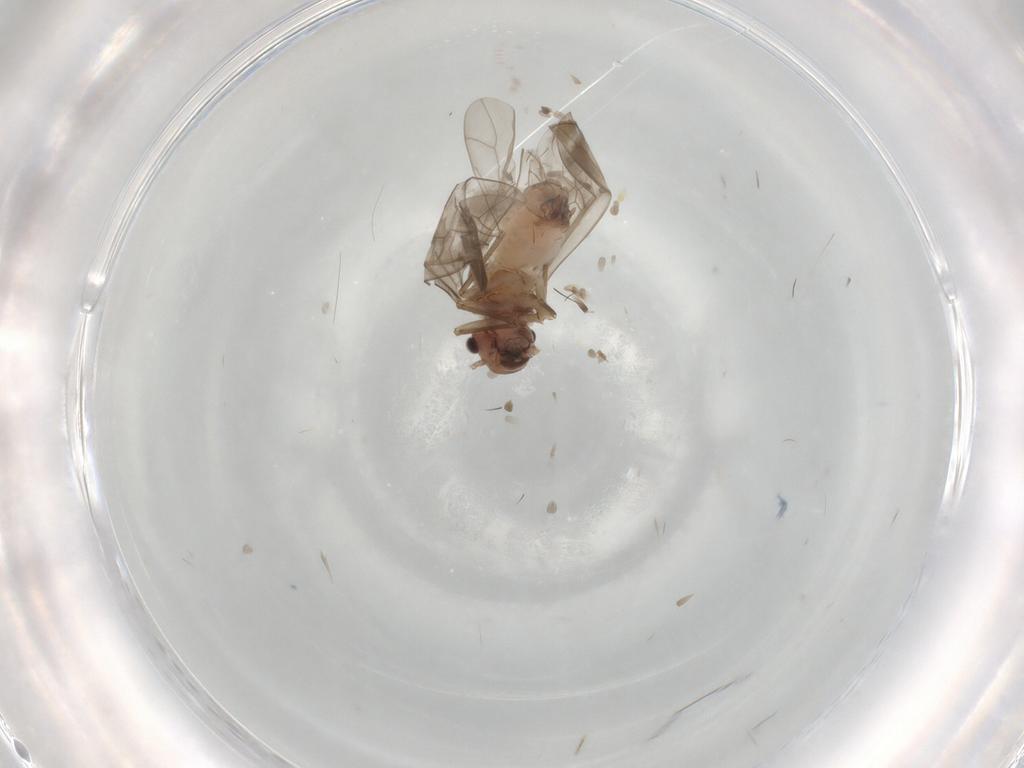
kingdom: Animalia
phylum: Arthropoda
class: Insecta
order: Psocodea
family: Peripsocidae
